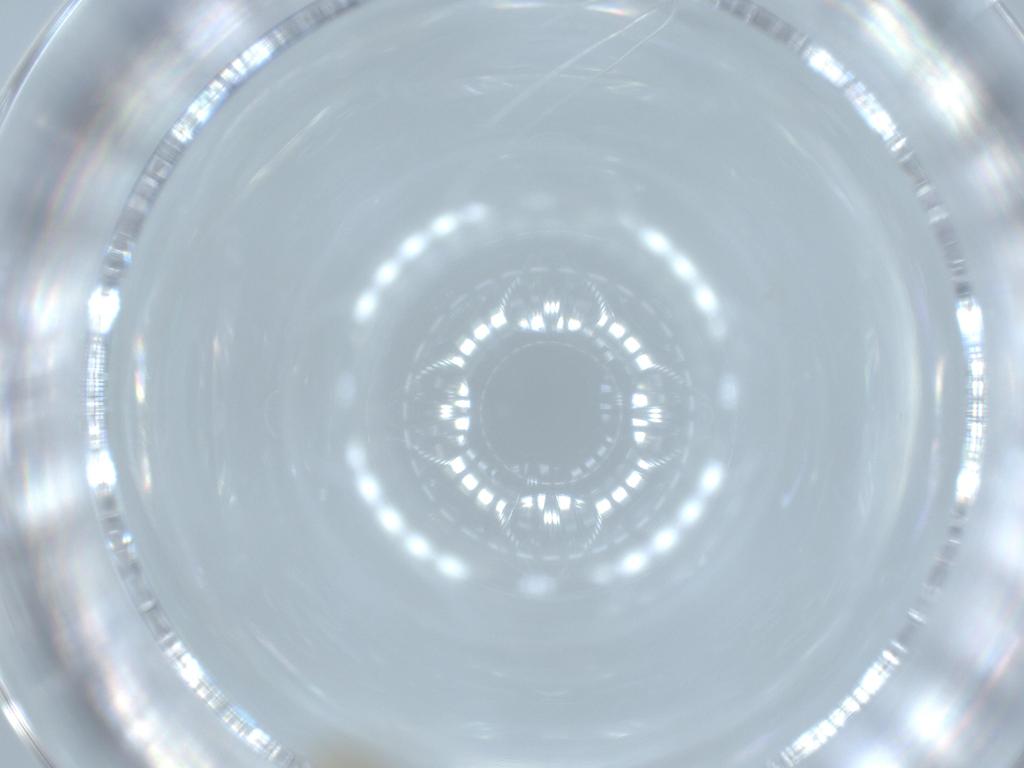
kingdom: Animalia
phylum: Arthropoda
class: Insecta
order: Diptera
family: Cecidomyiidae
